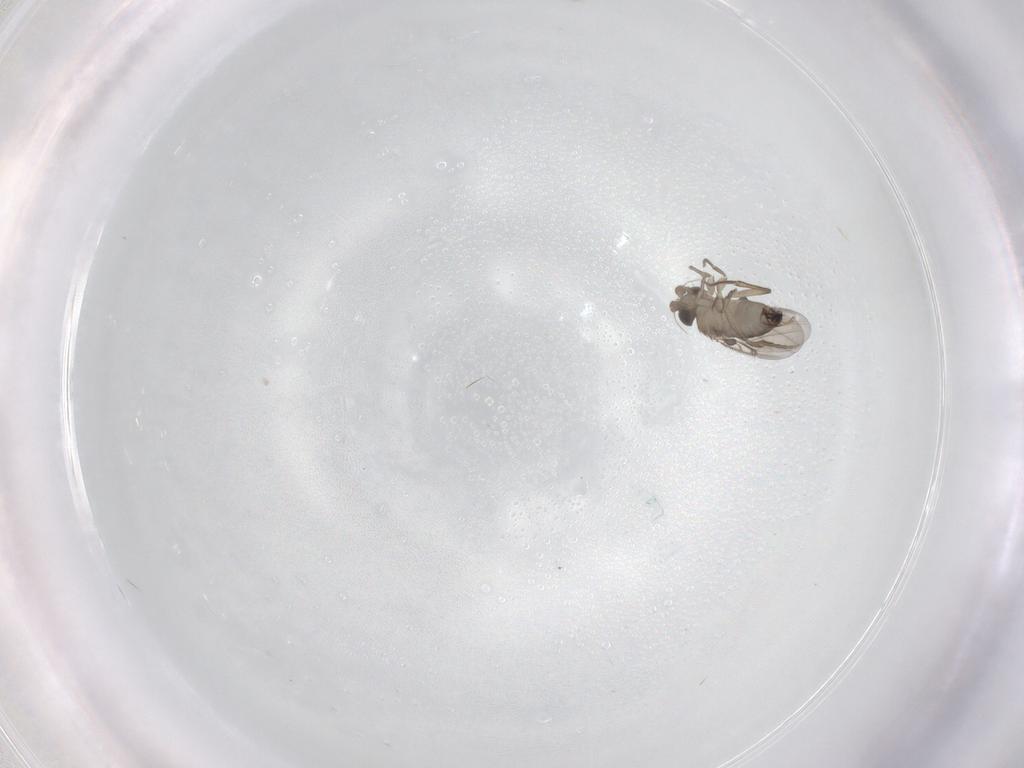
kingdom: Animalia
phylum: Arthropoda
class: Insecta
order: Diptera
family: Phoridae
